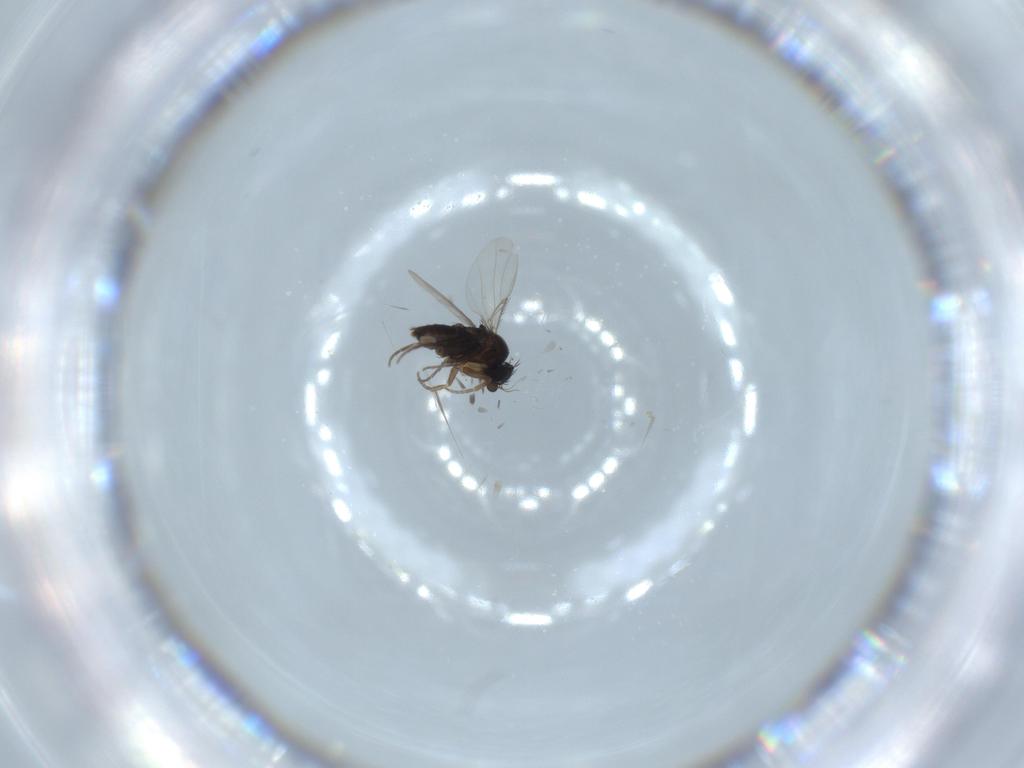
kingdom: Animalia
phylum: Arthropoda
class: Insecta
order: Diptera
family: Phoridae
